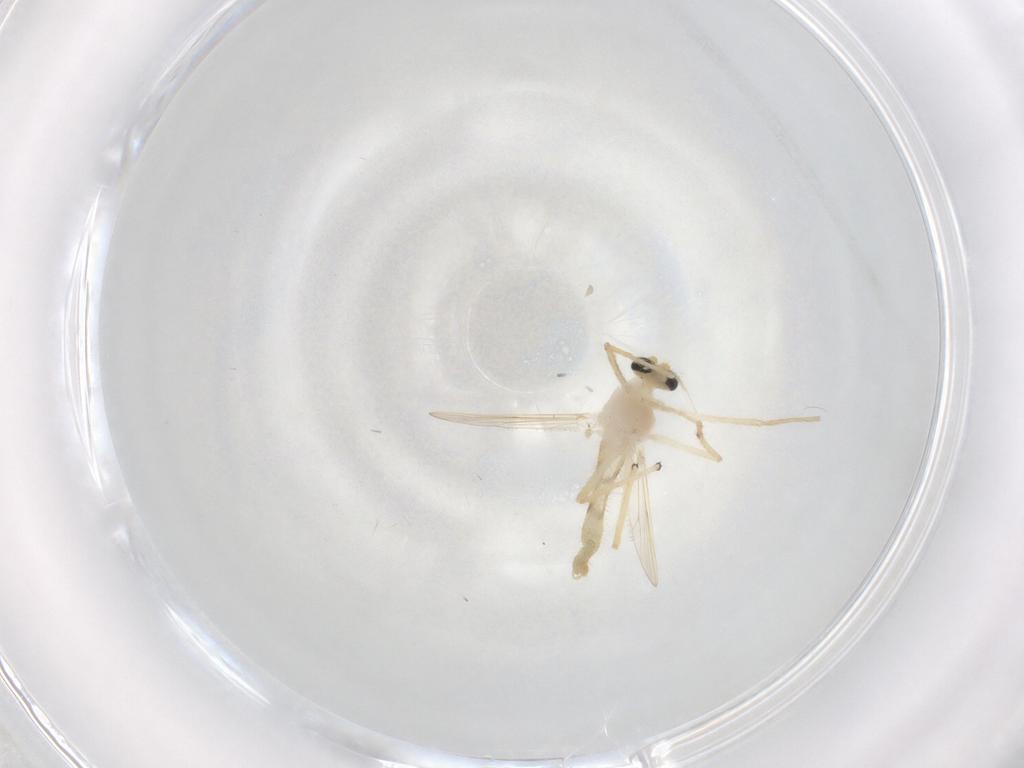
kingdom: Animalia
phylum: Arthropoda
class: Insecta
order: Diptera
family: Chironomidae
